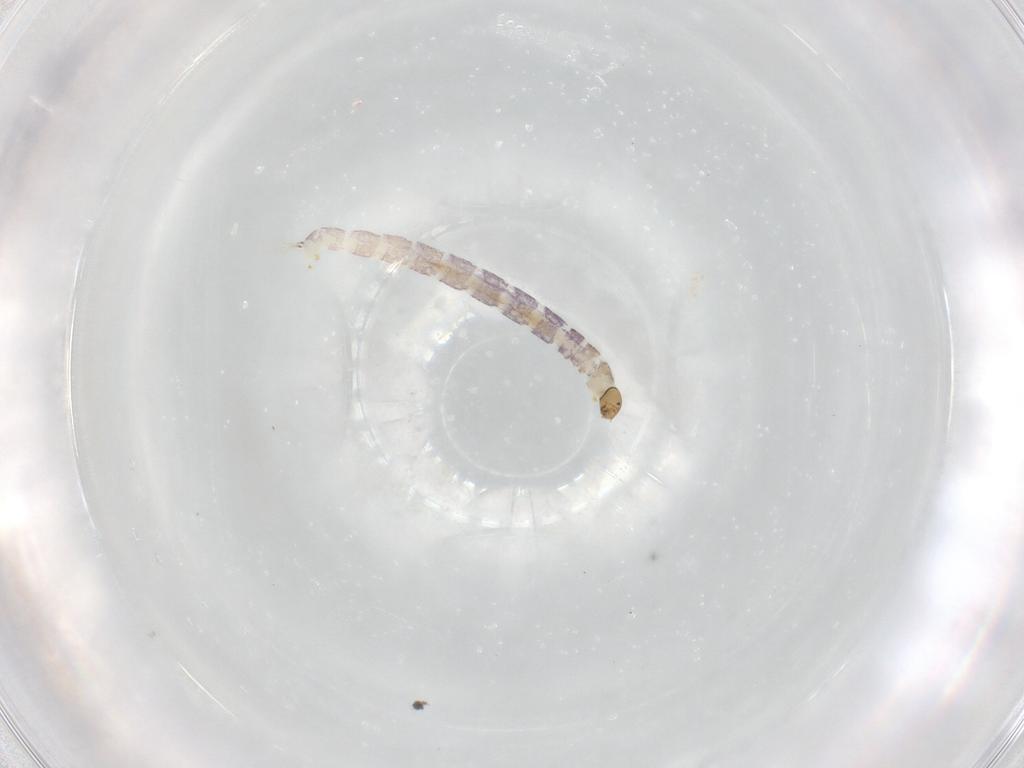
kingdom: Animalia
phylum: Arthropoda
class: Insecta
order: Diptera
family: Chironomidae
